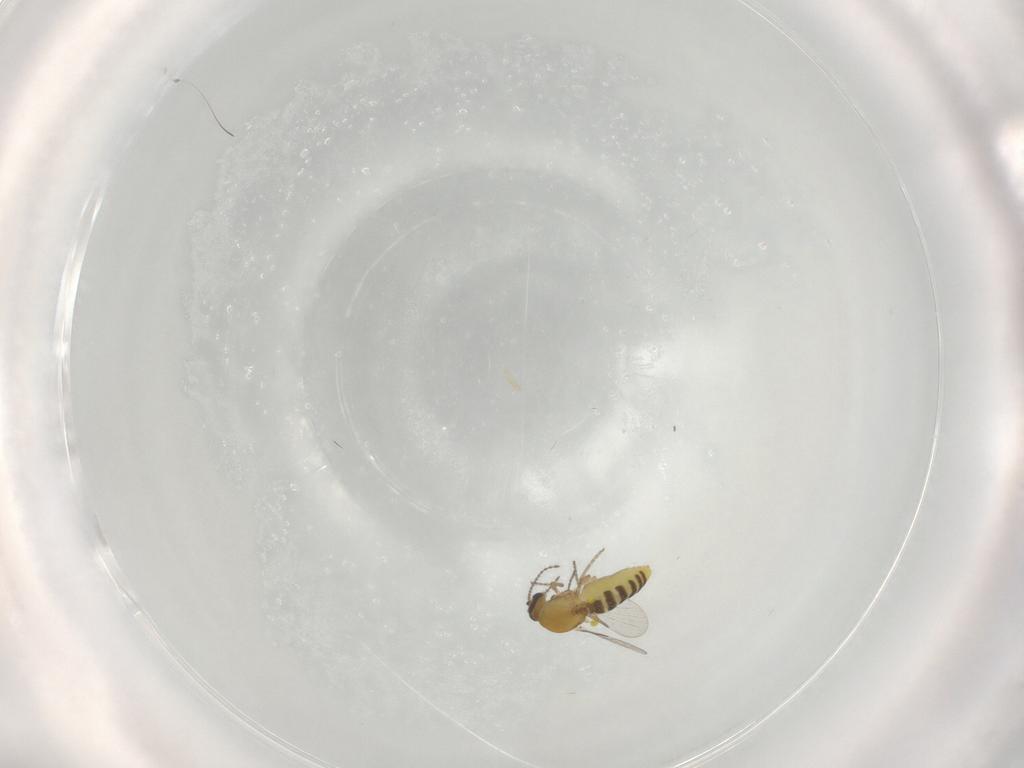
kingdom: Animalia
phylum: Arthropoda
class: Insecta
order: Diptera
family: Ceratopogonidae
